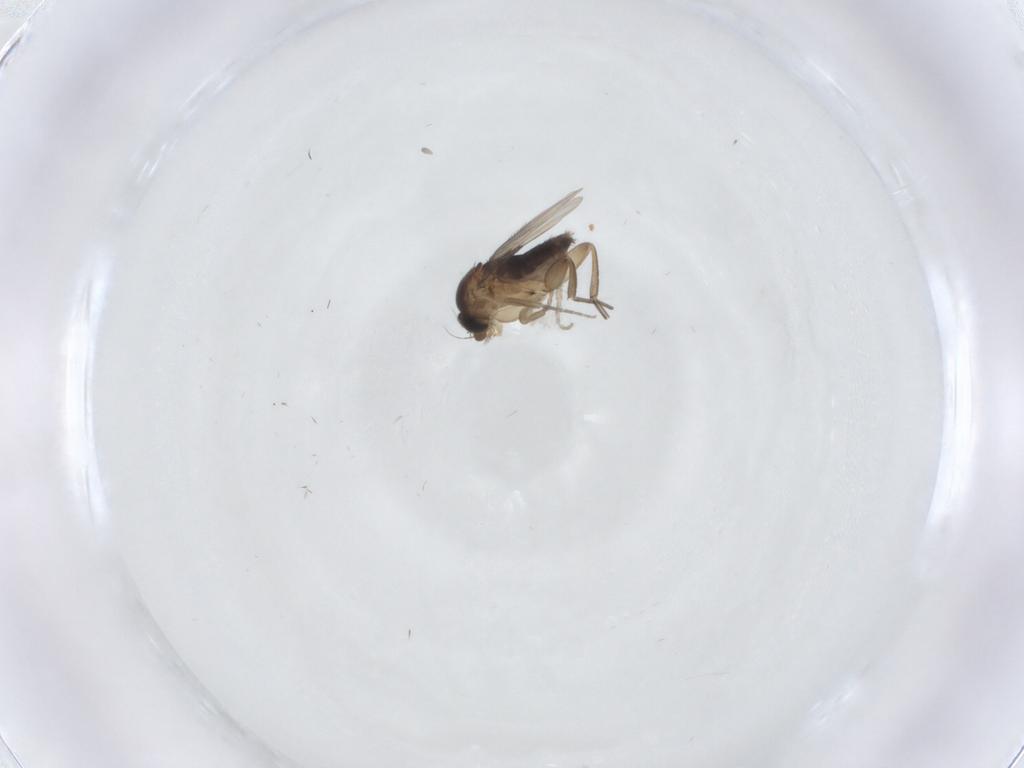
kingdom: Animalia
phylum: Arthropoda
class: Insecta
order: Diptera
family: Phoridae
